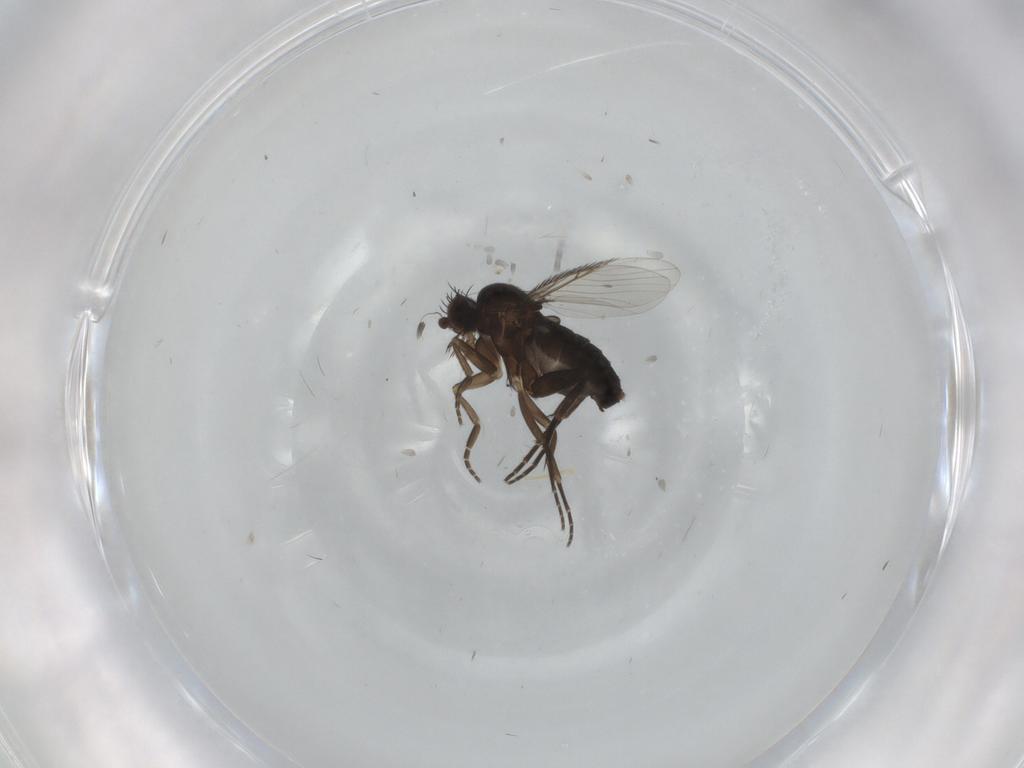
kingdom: Animalia
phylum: Arthropoda
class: Insecta
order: Diptera
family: Phoridae
